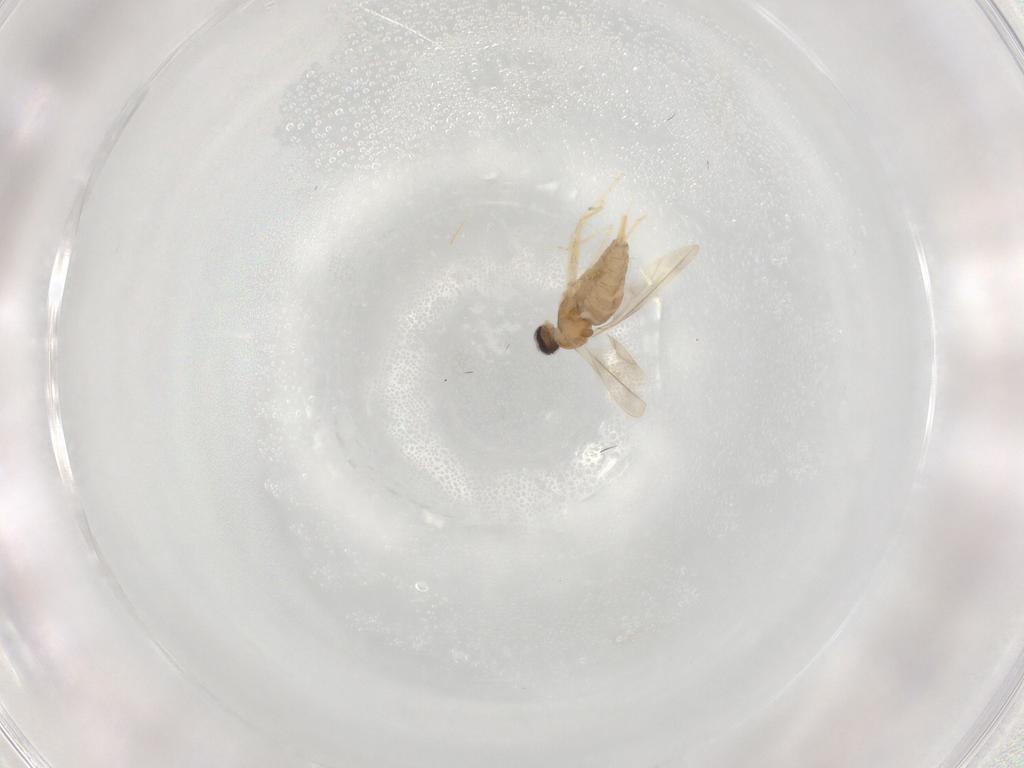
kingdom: Animalia
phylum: Arthropoda
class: Insecta
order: Diptera
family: Cecidomyiidae
